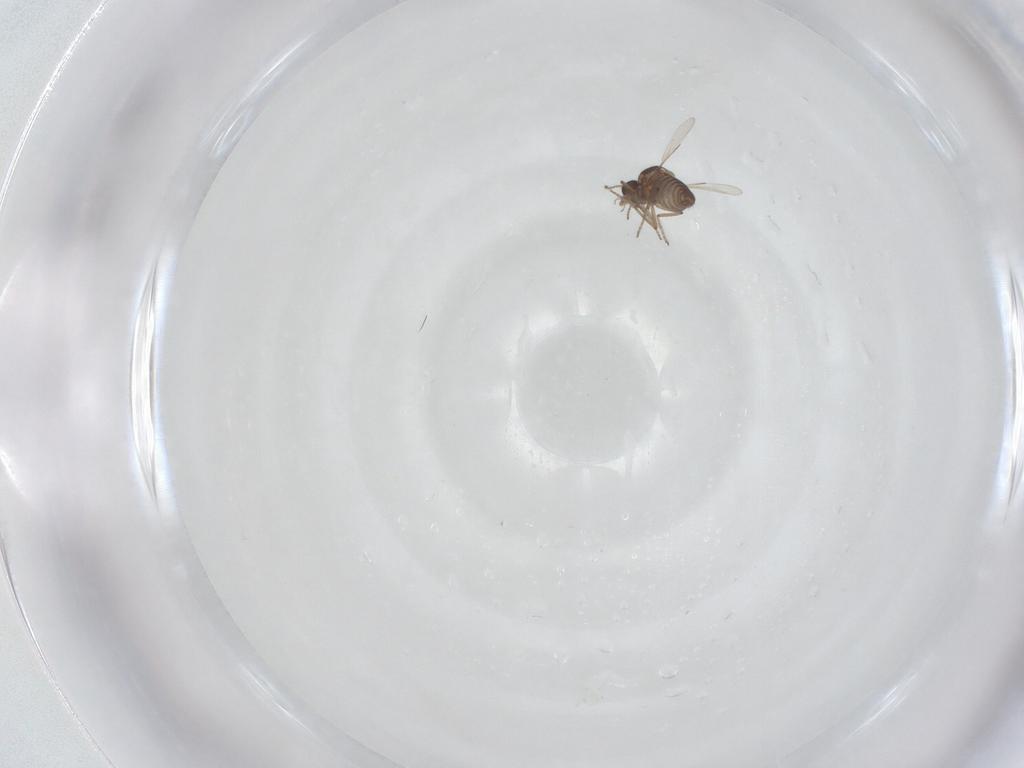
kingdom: Animalia
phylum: Arthropoda
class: Insecta
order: Diptera
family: Ceratopogonidae
